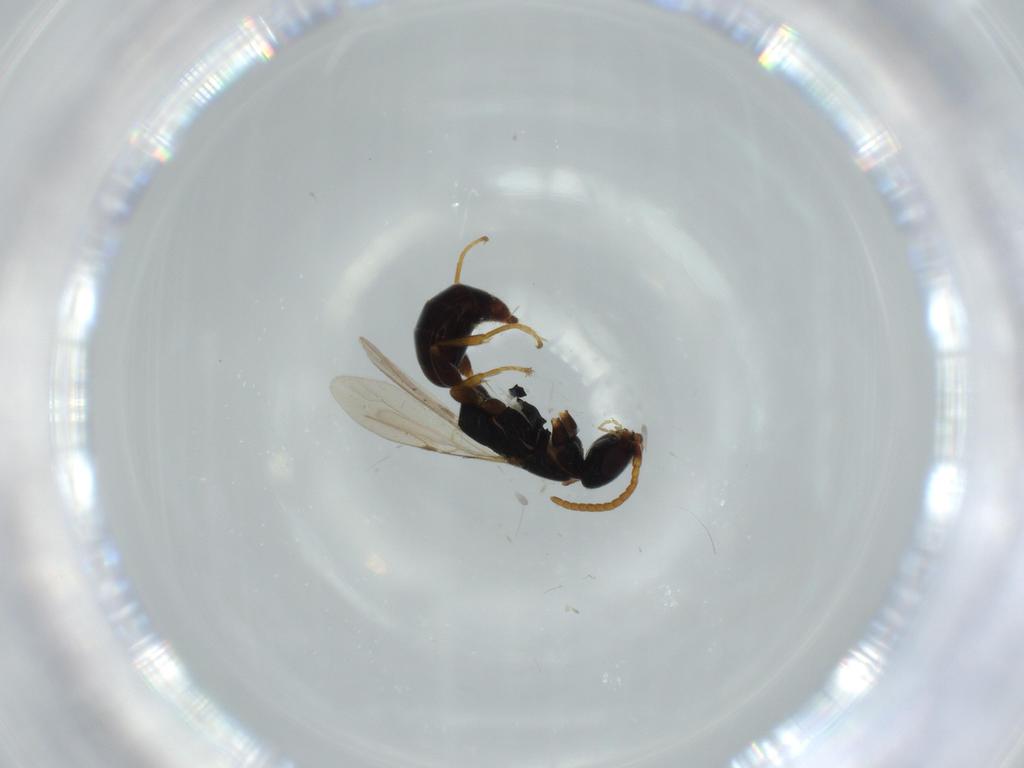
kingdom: Animalia
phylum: Arthropoda
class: Insecta
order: Hymenoptera
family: Bethylidae
